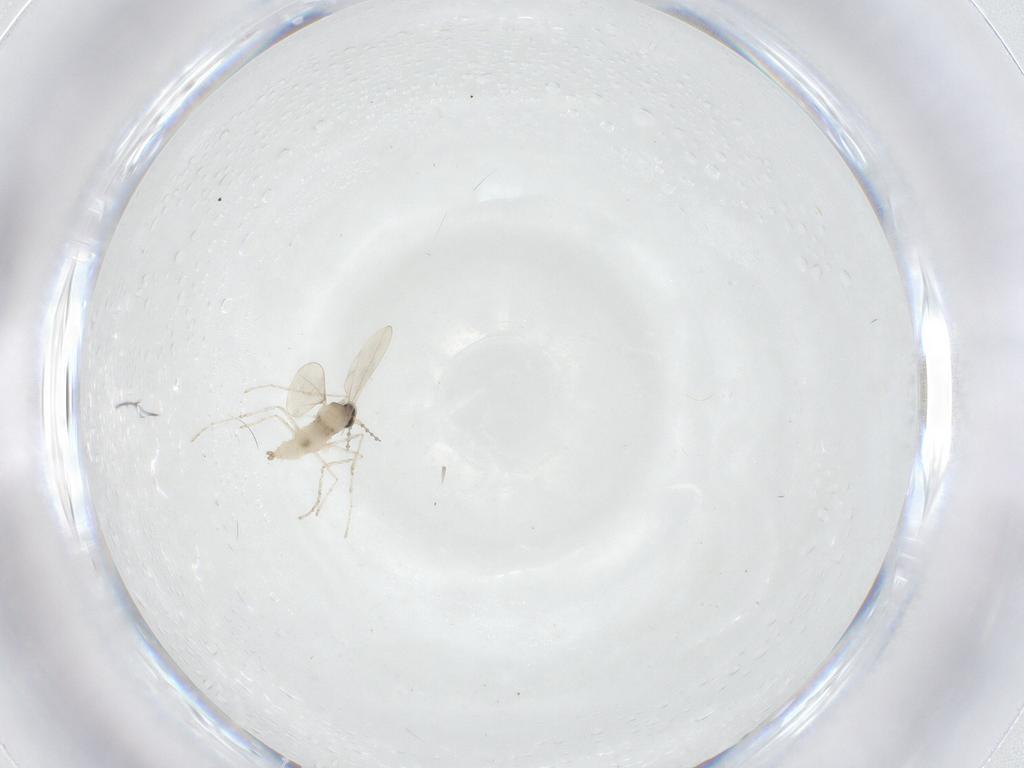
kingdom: Animalia
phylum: Arthropoda
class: Insecta
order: Diptera
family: Cecidomyiidae
